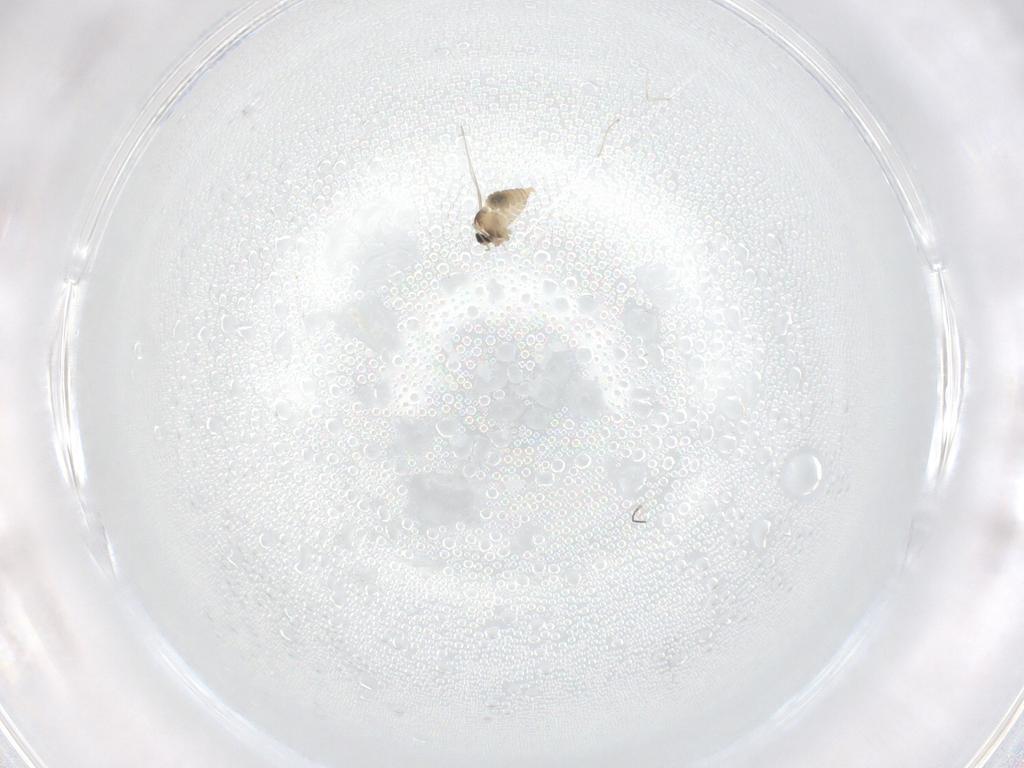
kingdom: Animalia
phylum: Arthropoda
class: Insecta
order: Diptera
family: Cecidomyiidae
